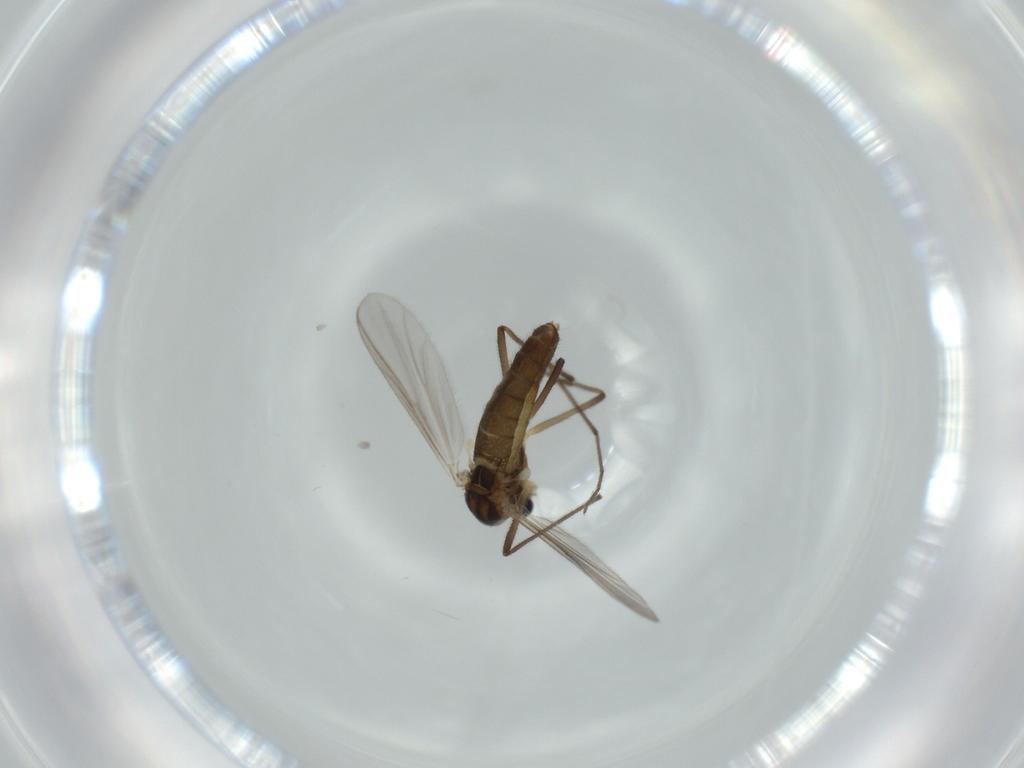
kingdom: Animalia
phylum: Arthropoda
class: Insecta
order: Diptera
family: Chironomidae
